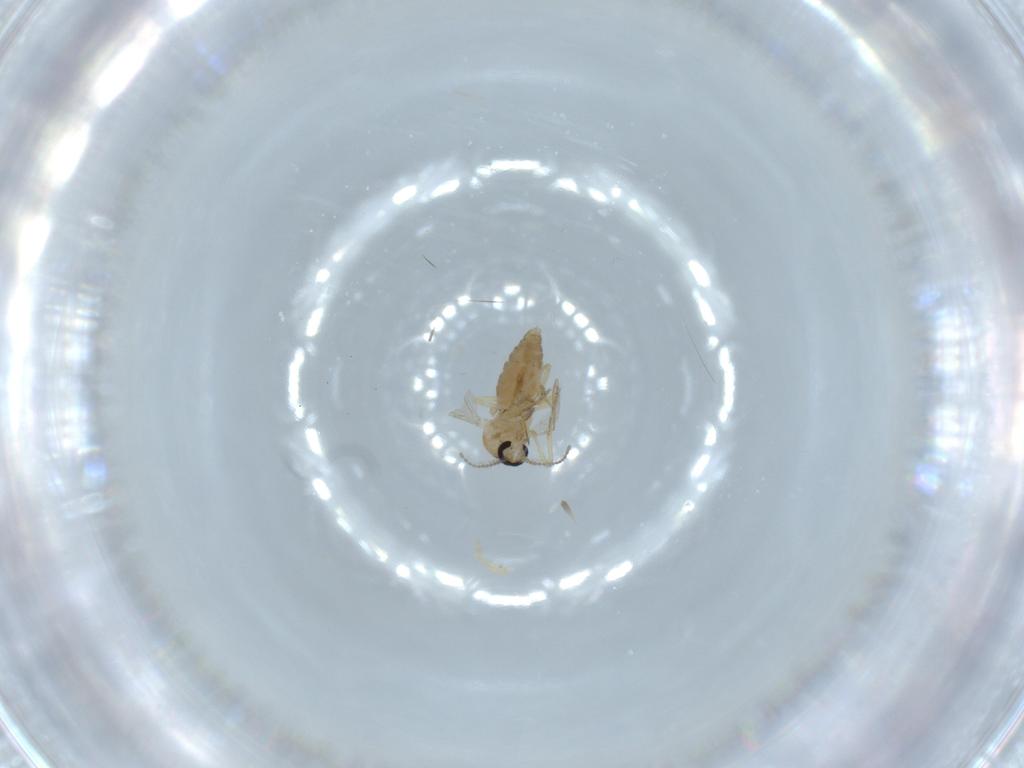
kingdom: Animalia
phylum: Arthropoda
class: Insecta
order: Diptera
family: Ceratopogonidae
